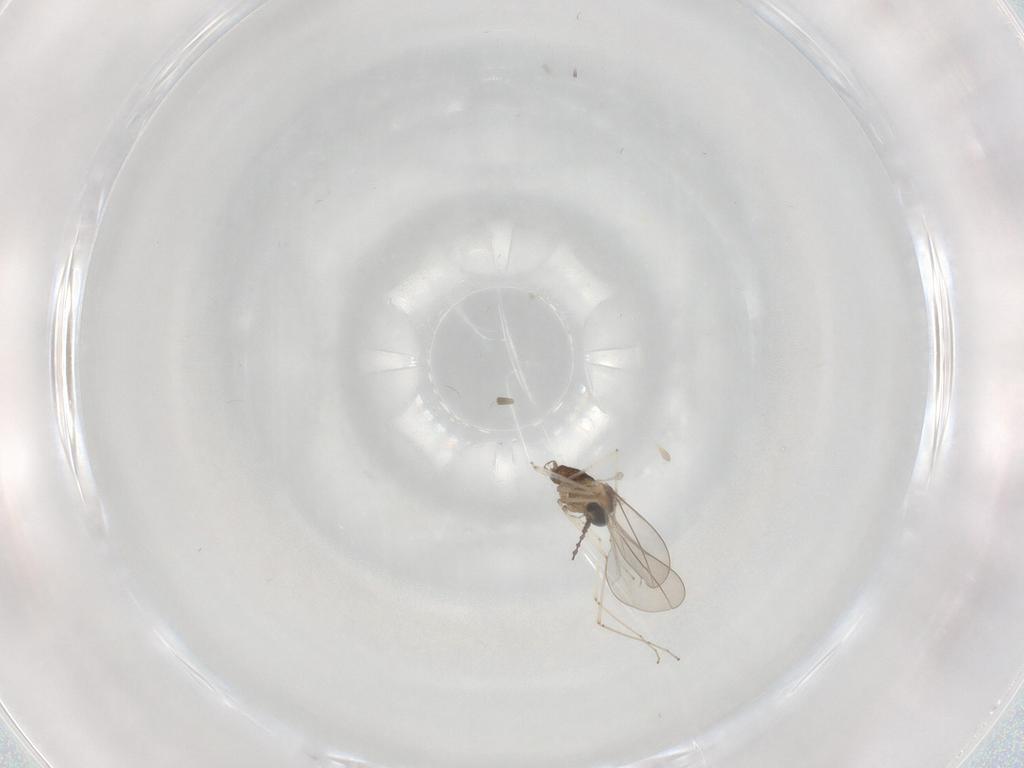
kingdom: Animalia
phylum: Arthropoda
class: Insecta
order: Diptera
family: Cecidomyiidae
